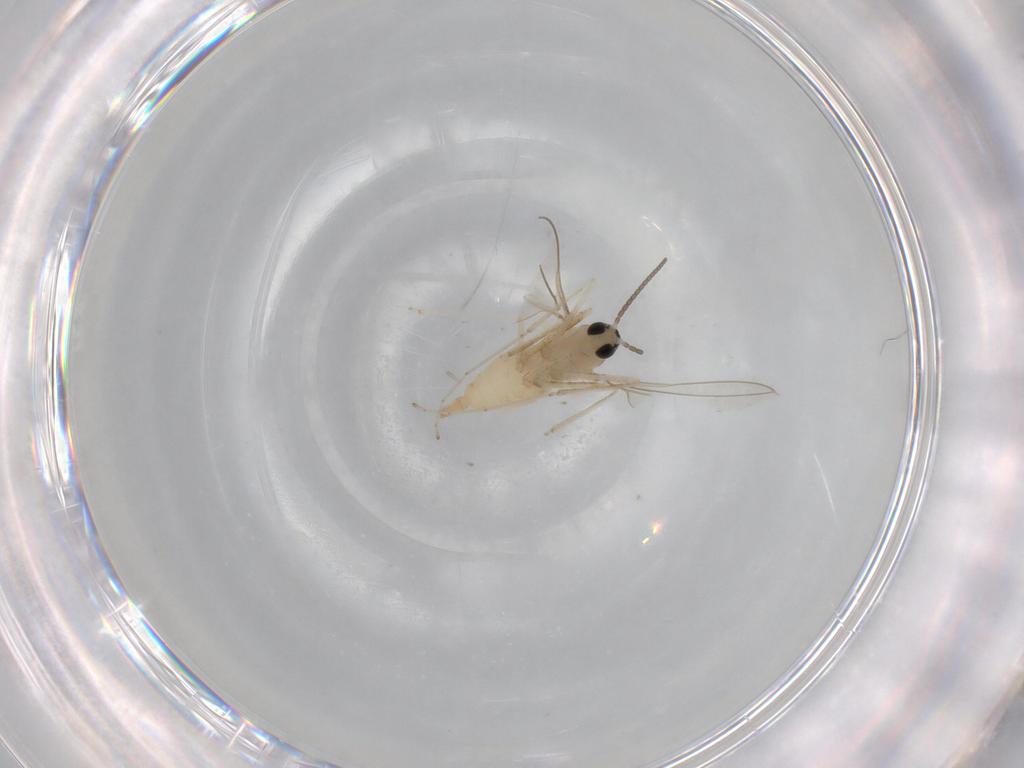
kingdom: Animalia
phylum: Arthropoda
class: Insecta
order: Diptera
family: Cecidomyiidae
